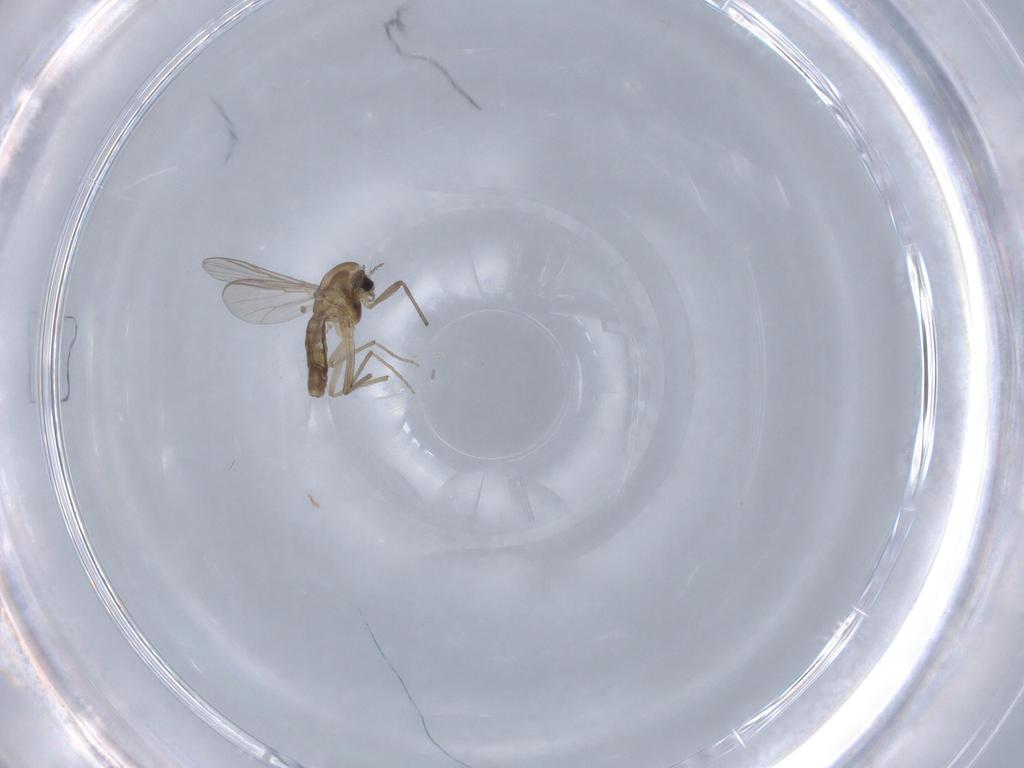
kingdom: Animalia
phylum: Arthropoda
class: Insecta
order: Diptera
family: Chironomidae
